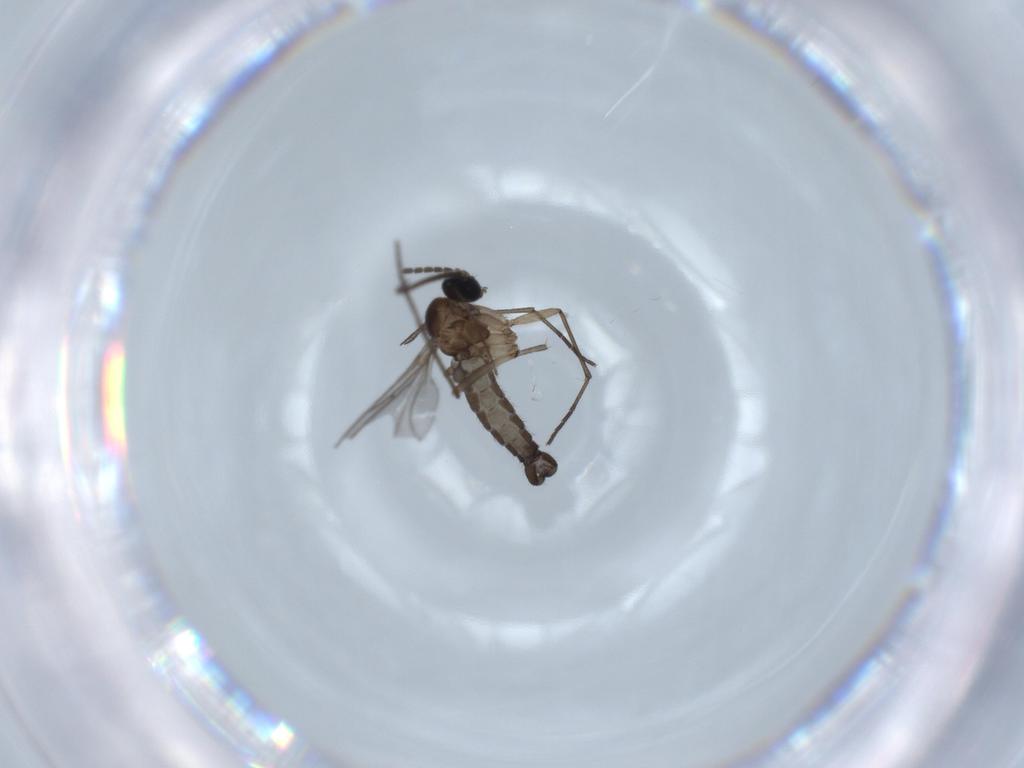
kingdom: Animalia
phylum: Arthropoda
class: Insecta
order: Diptera
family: Sciaridae
